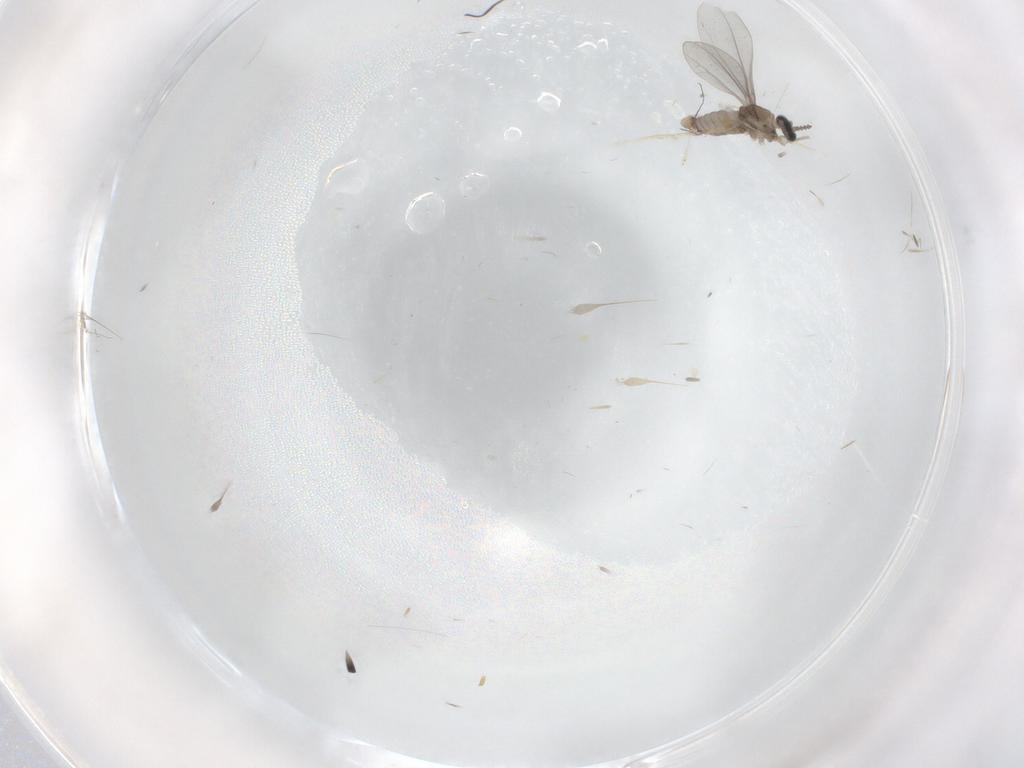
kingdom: Animalia
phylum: Arthropoda
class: Insecta
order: Diptera
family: Cecidomyiidae
